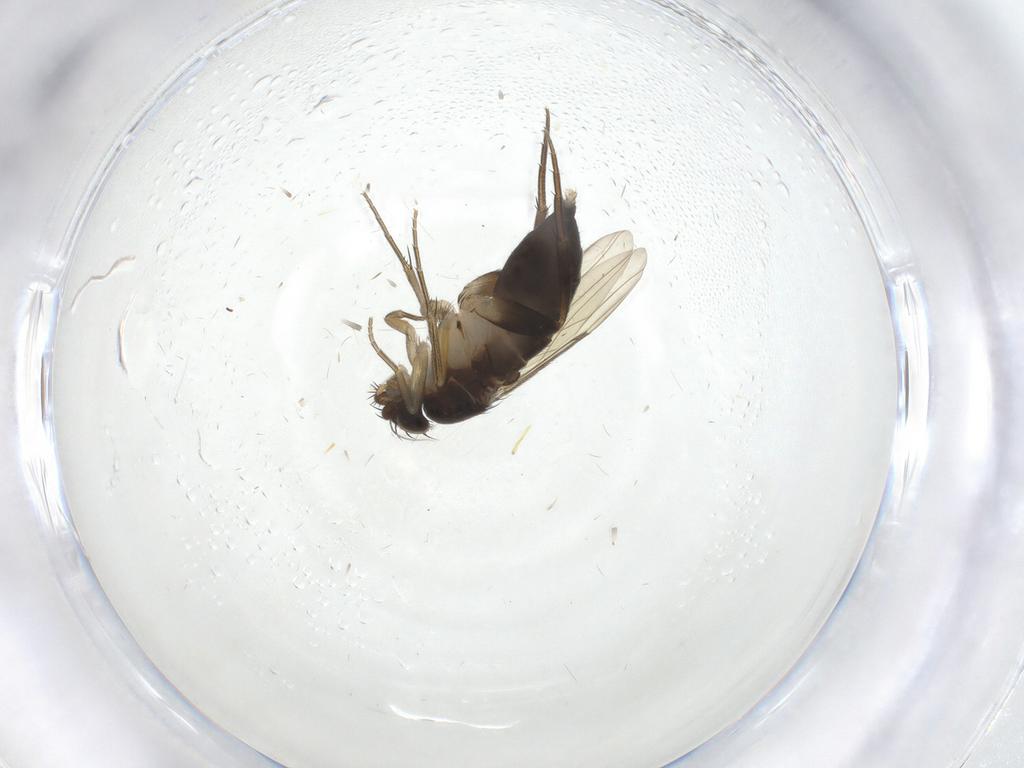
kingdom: Animalia
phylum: Arthropoda
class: Insecta
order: Diptera
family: Phoridae
